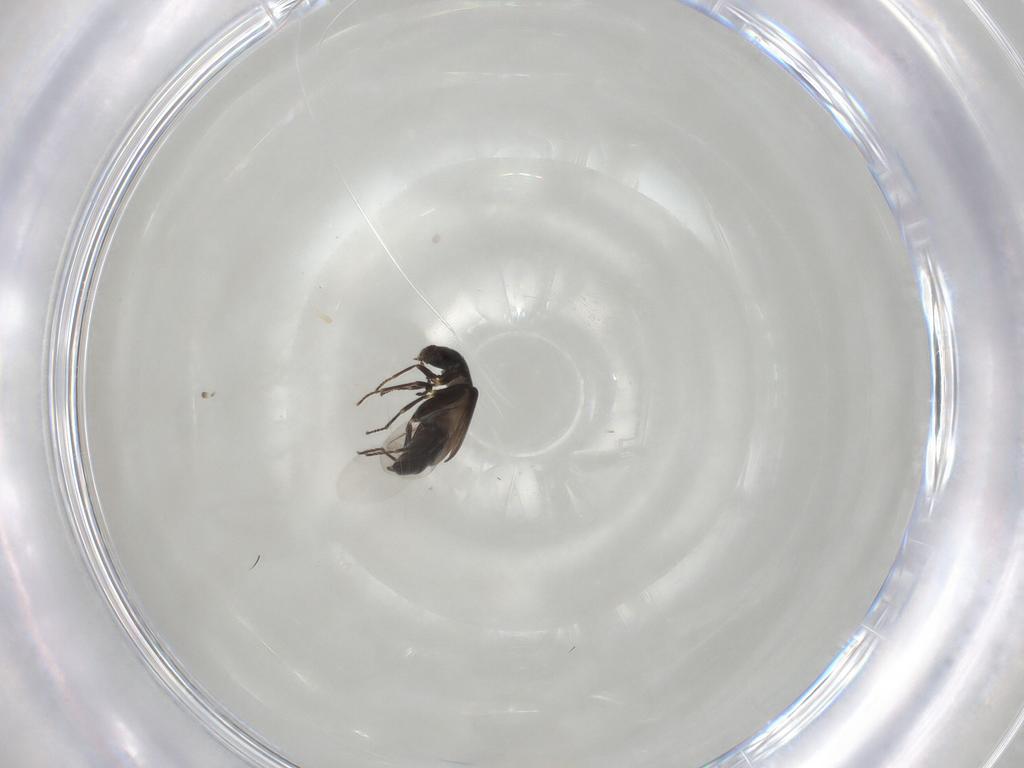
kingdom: Animalia
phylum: Arthropoda
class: Insecta
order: Coleoptera
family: Melyridae
